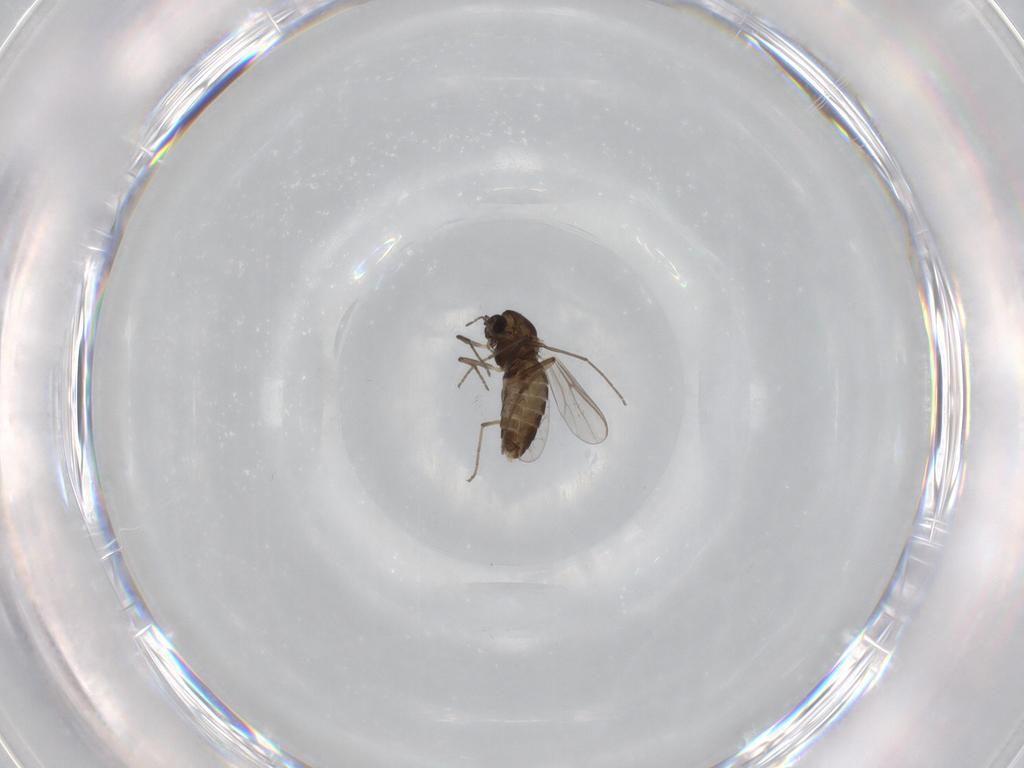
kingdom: Animalia
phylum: Arthropoda
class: Insecta
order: Diptera
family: Chironomidae
